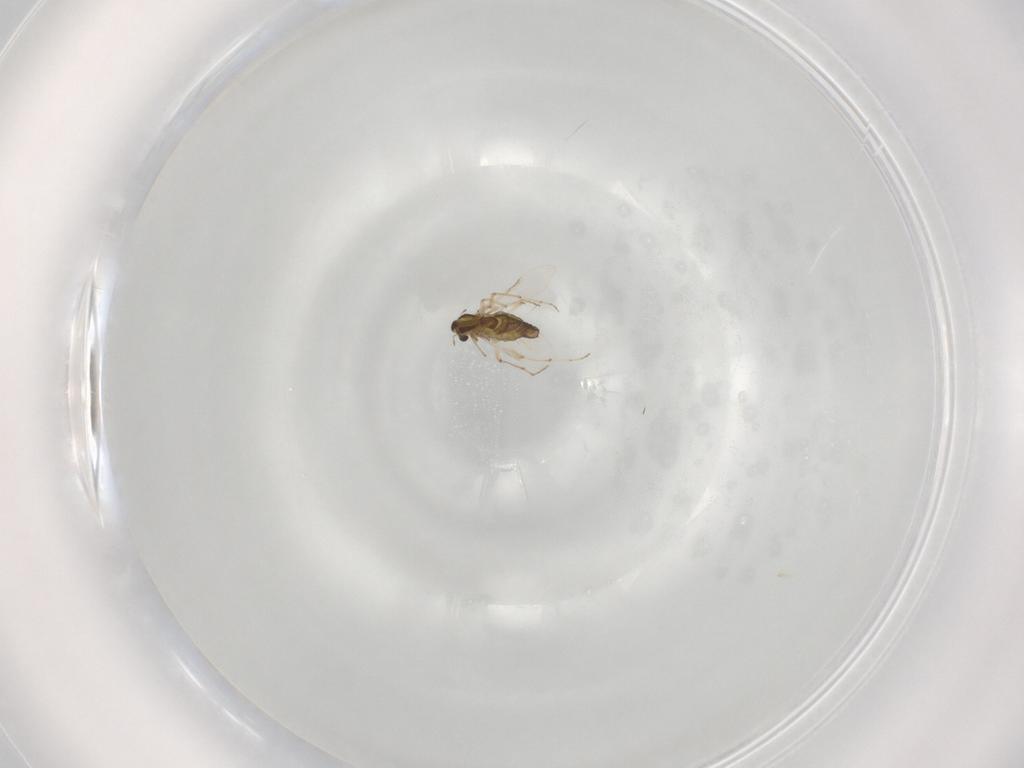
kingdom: Animalia
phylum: Arthropoda
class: Insecta
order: Diptera
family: Chironomidae
